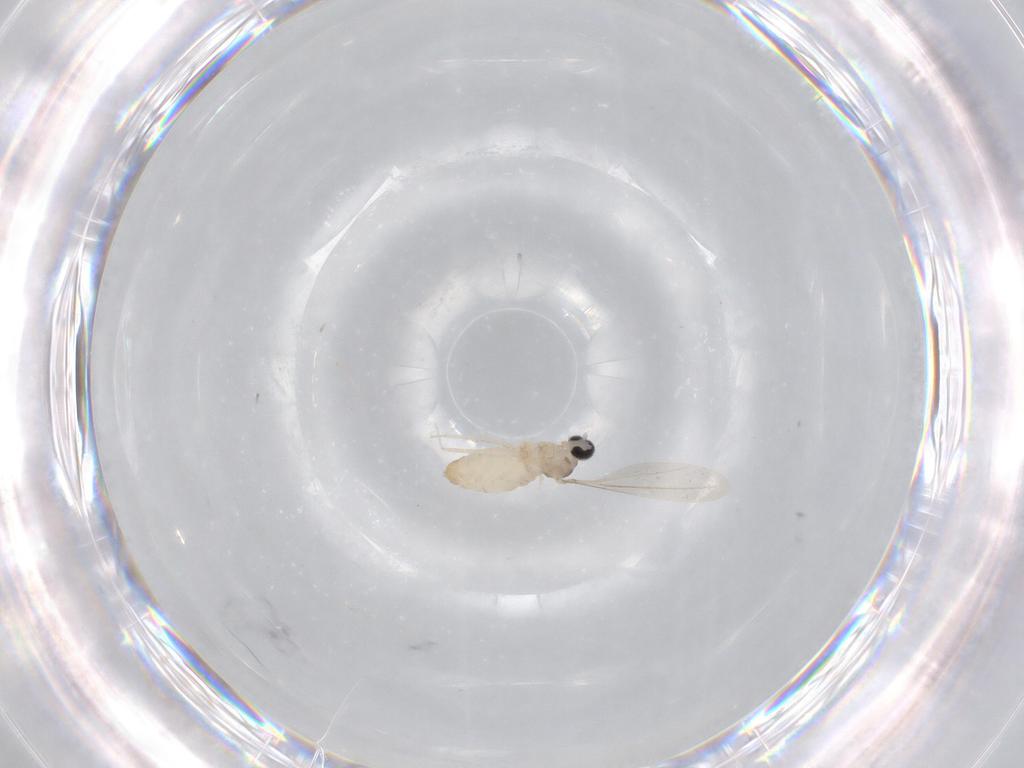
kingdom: Animalia
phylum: Arthropoda
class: Insecta
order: Diptera
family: Cecidomyiidae
